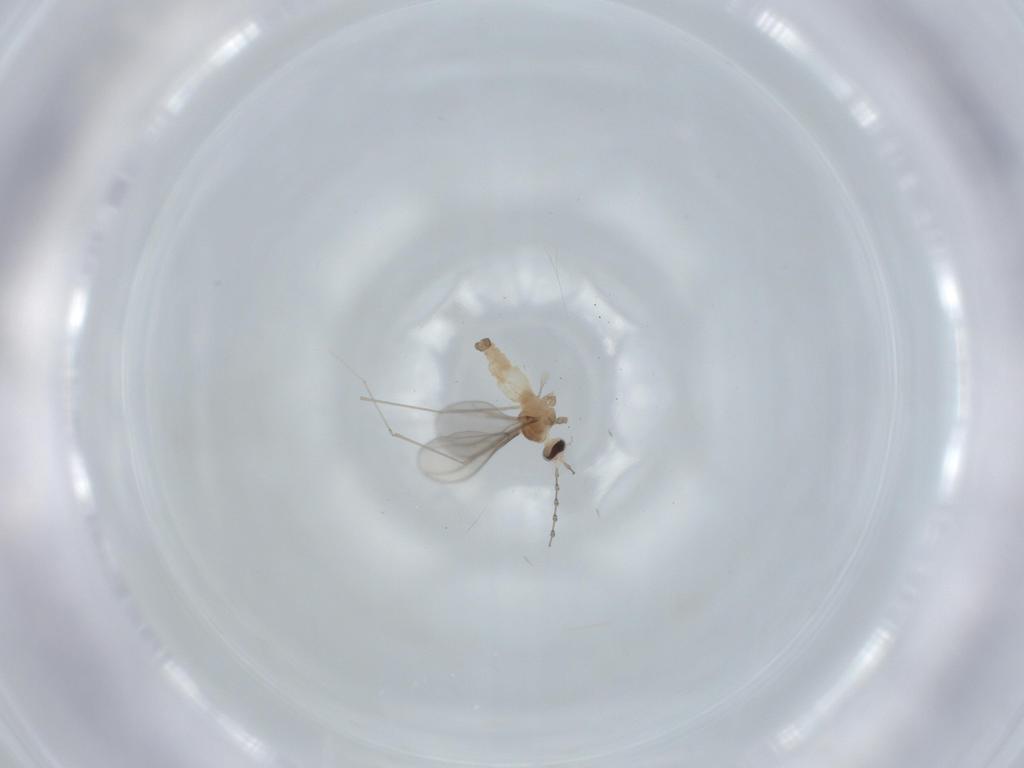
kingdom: Animalia
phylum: Arthropoda
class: Insecta
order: Diptera
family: Cecidomyiidae
